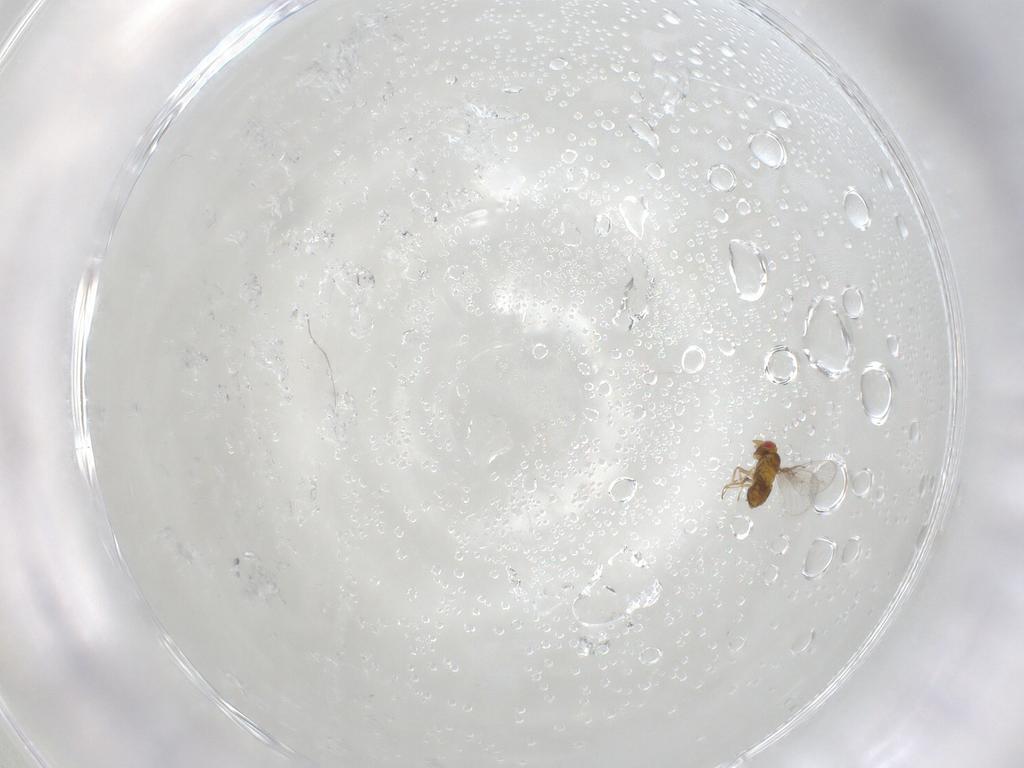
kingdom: Animalia
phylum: Arthropoda
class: Insecta
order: Hymenoptera
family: Trichogrammatidae
